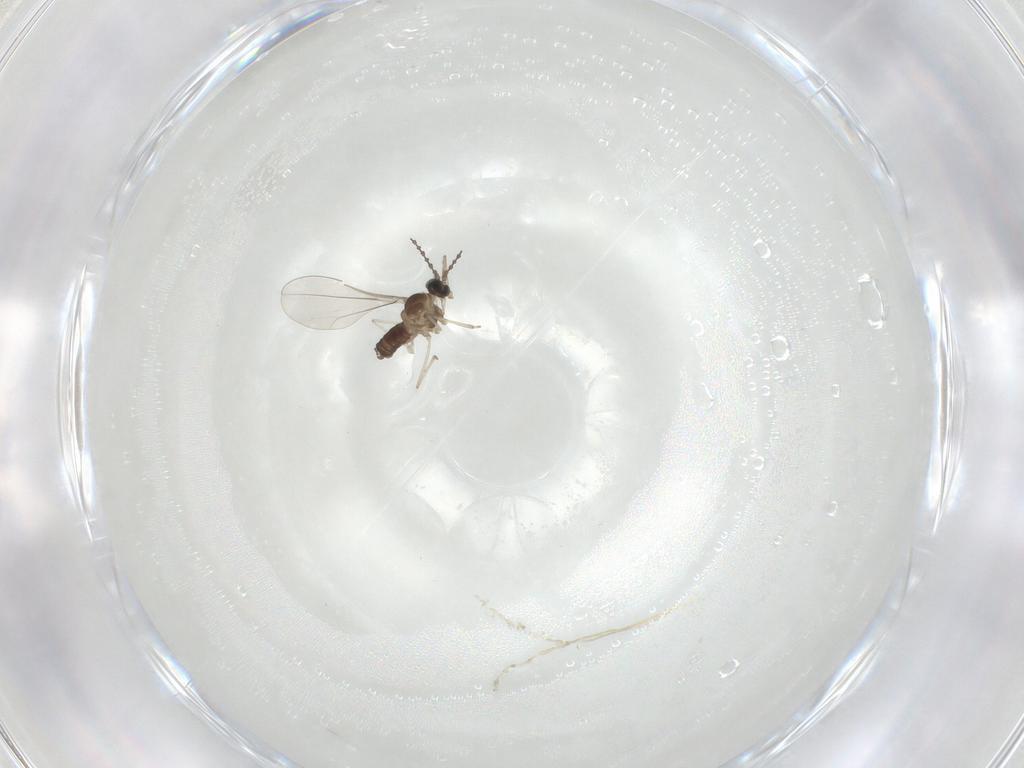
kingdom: Animalia
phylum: Arthropoda
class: Insecta
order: Diptera
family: Cecidomyiidae
